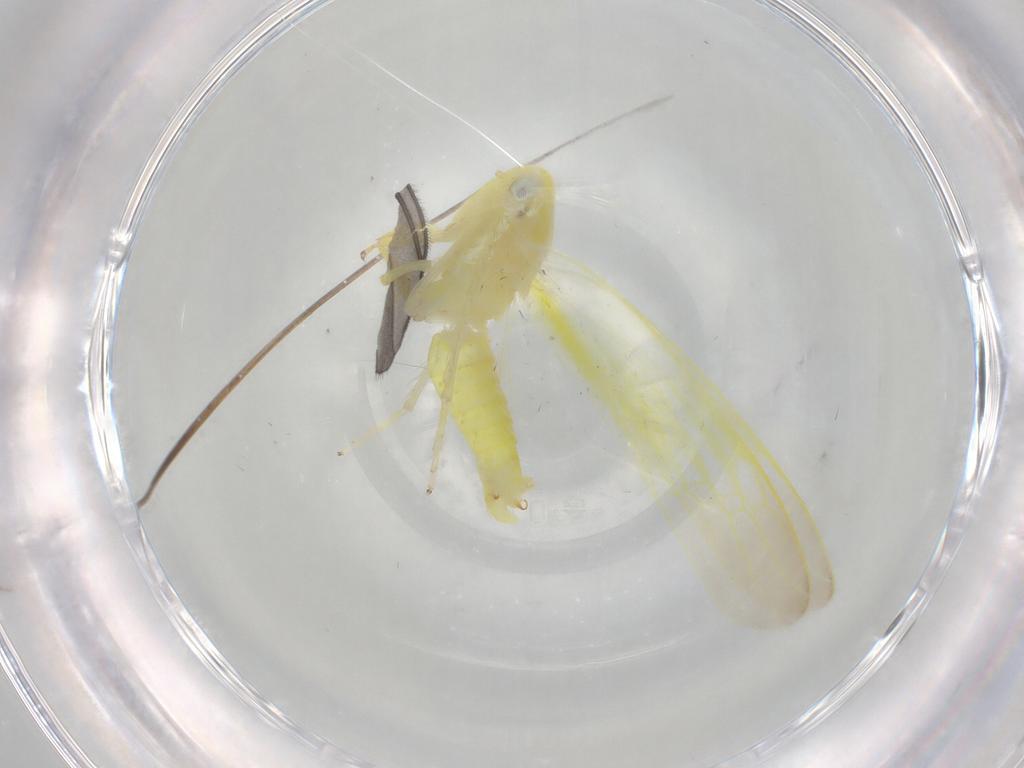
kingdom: Animalia
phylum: Arthropoda
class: Insecta
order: Hemiptera
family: Cicadellidae
